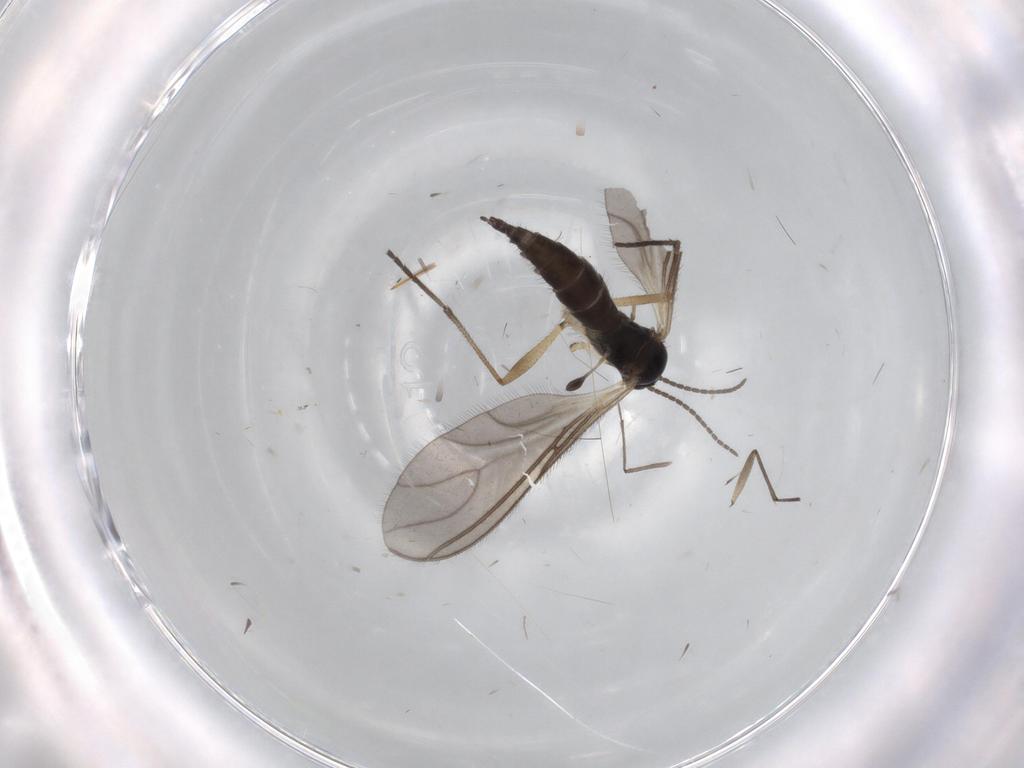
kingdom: Animalia
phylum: Arthropoda
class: Insecta
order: Diptera
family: Sciaridae
